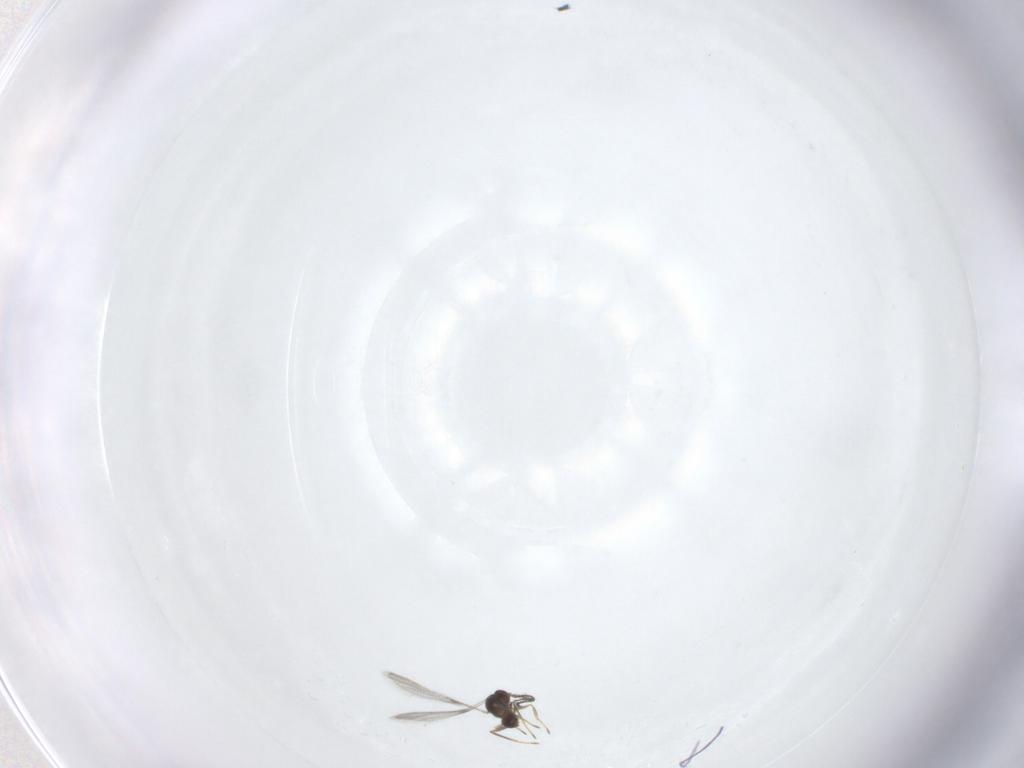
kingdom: Animalia
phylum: Arthropoda
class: Insecta
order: Hymenoptera
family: Mymaridae
